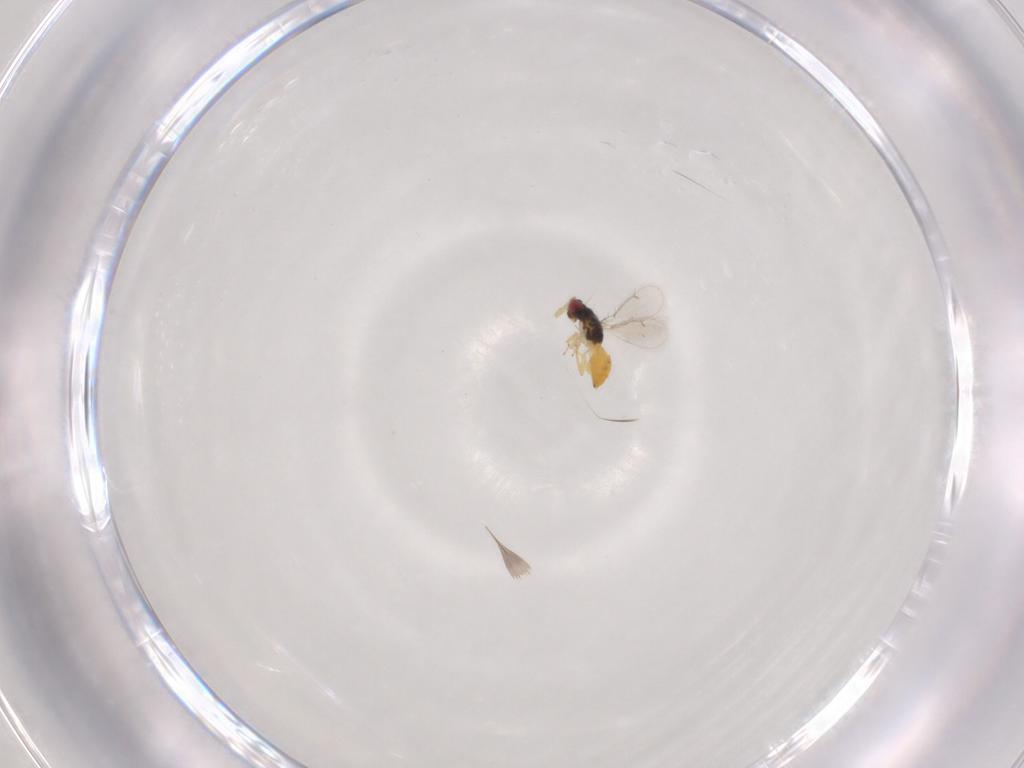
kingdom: Animalia
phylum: Arthropoda
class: Insecta
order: Hymenoptera
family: Eulophidae
